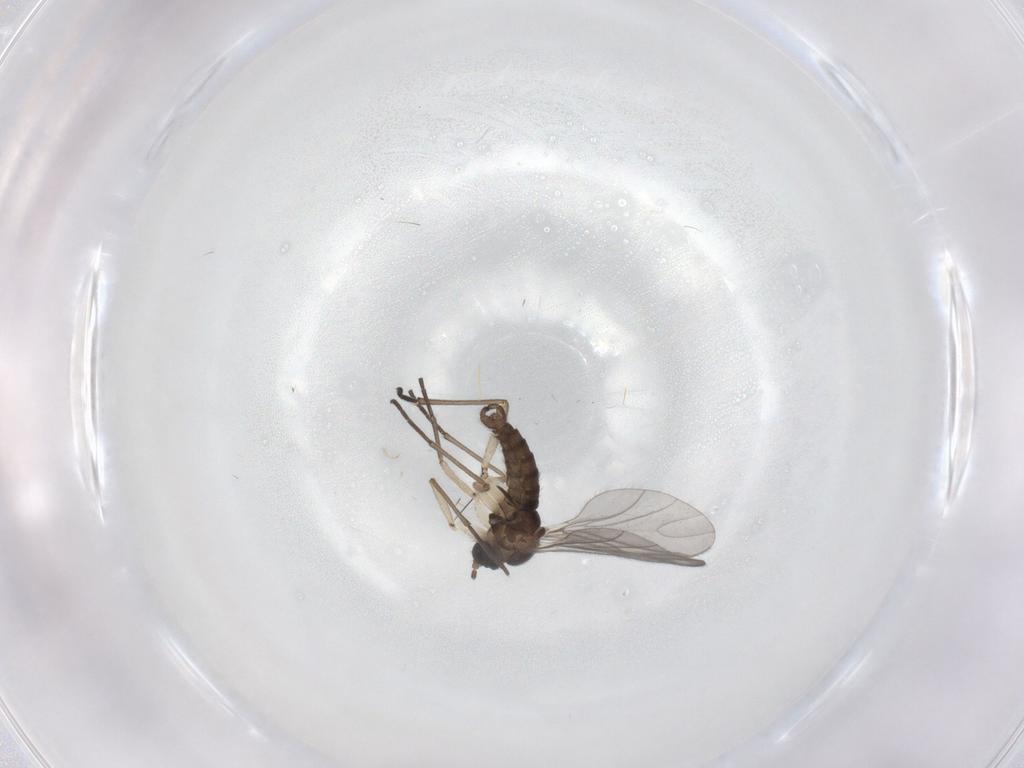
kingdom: Animalia
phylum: Arthropoda
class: Insecta
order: Diptera
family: Sciaridae
